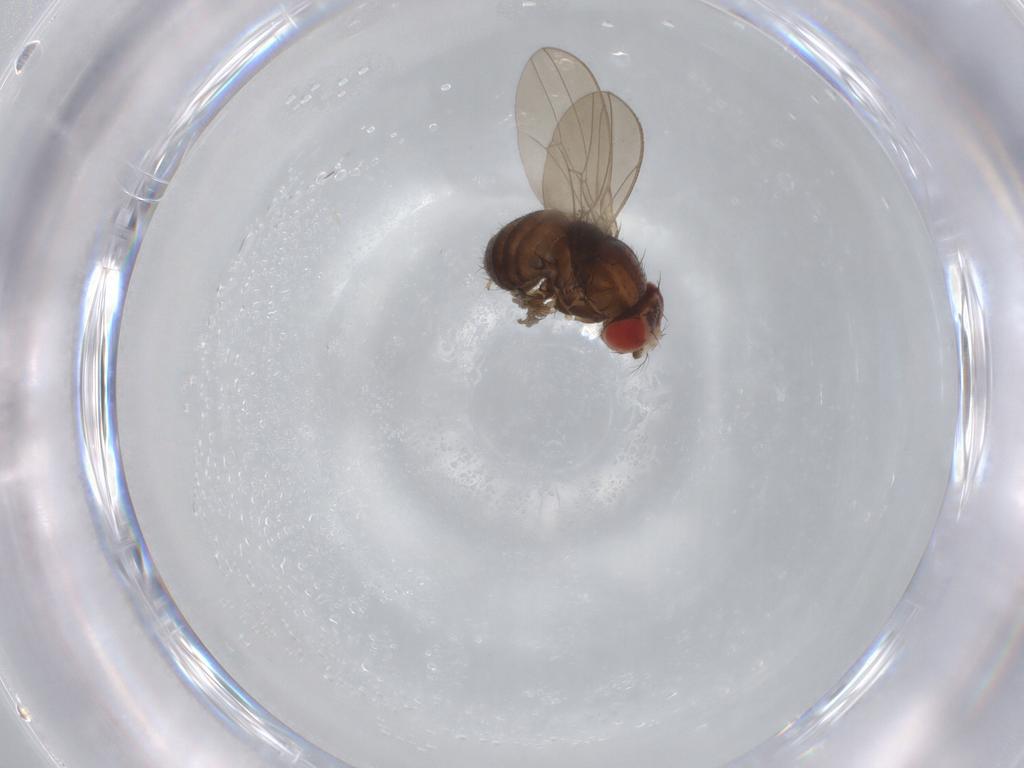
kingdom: Animalia
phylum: Arthropoda
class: Insecta
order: Diptera
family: Drosophilidae
